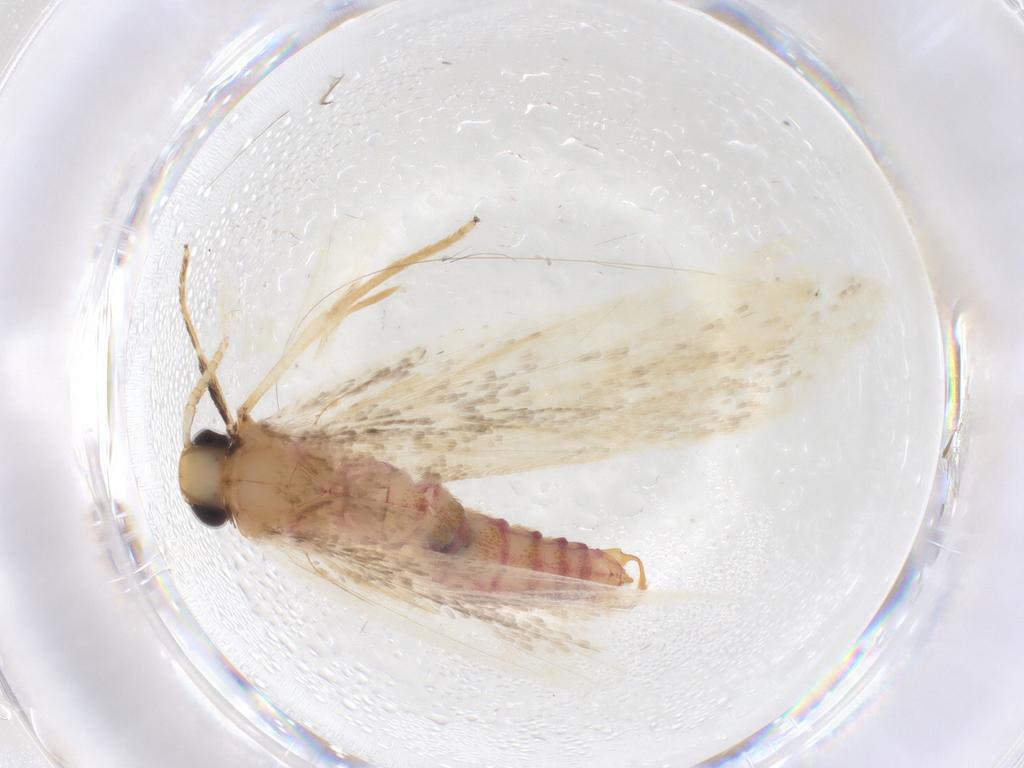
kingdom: Animalia
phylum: Arthropoda
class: Insecta
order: Lepidoptera
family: Lecithoceridae
